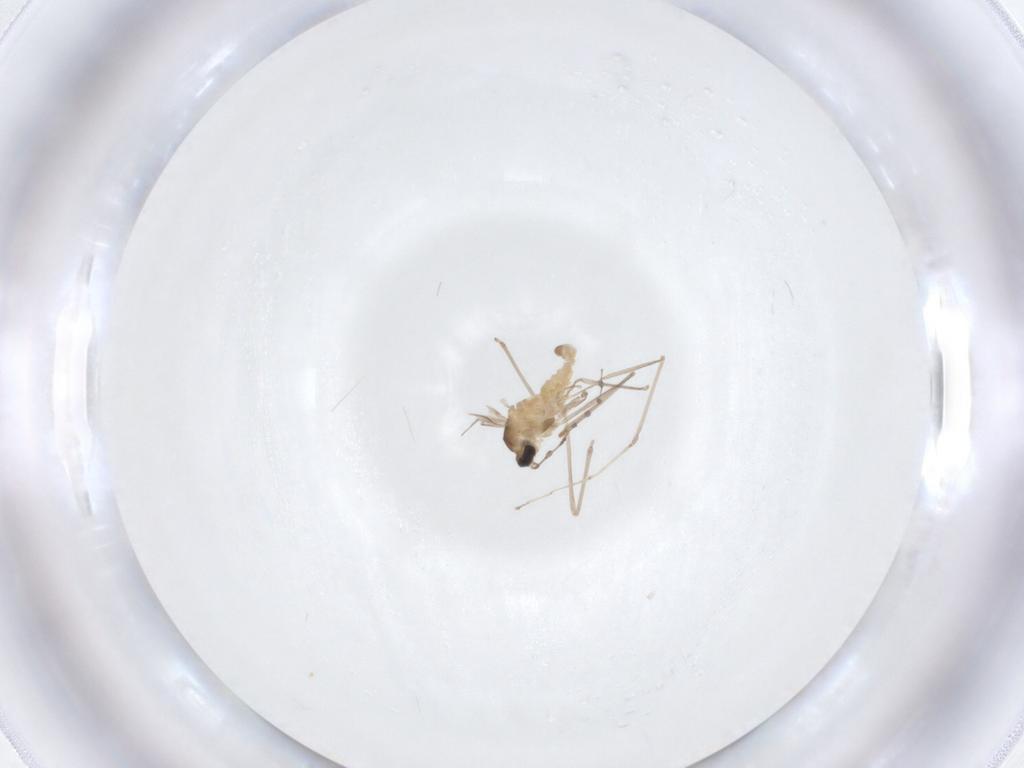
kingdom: Animalia
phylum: Arthropoda
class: Insecta
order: Diptera
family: Cecidomyiidae
